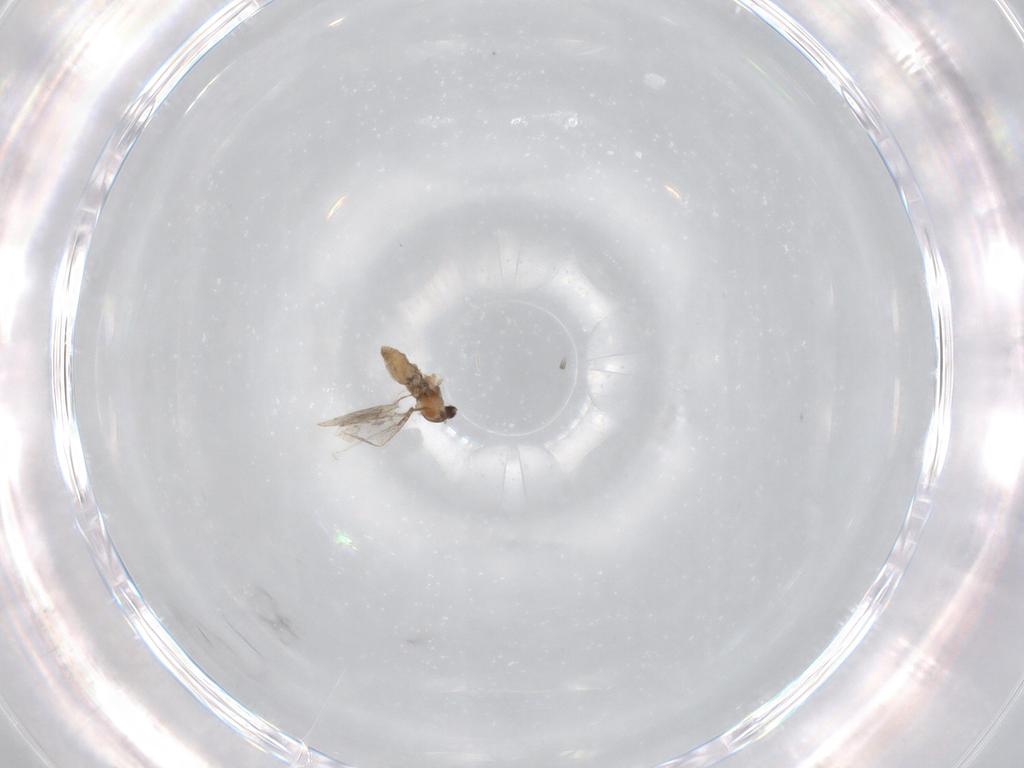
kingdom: Animalia
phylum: Arthropoda
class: Insecta
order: Diptera
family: Cecidomyiidae
